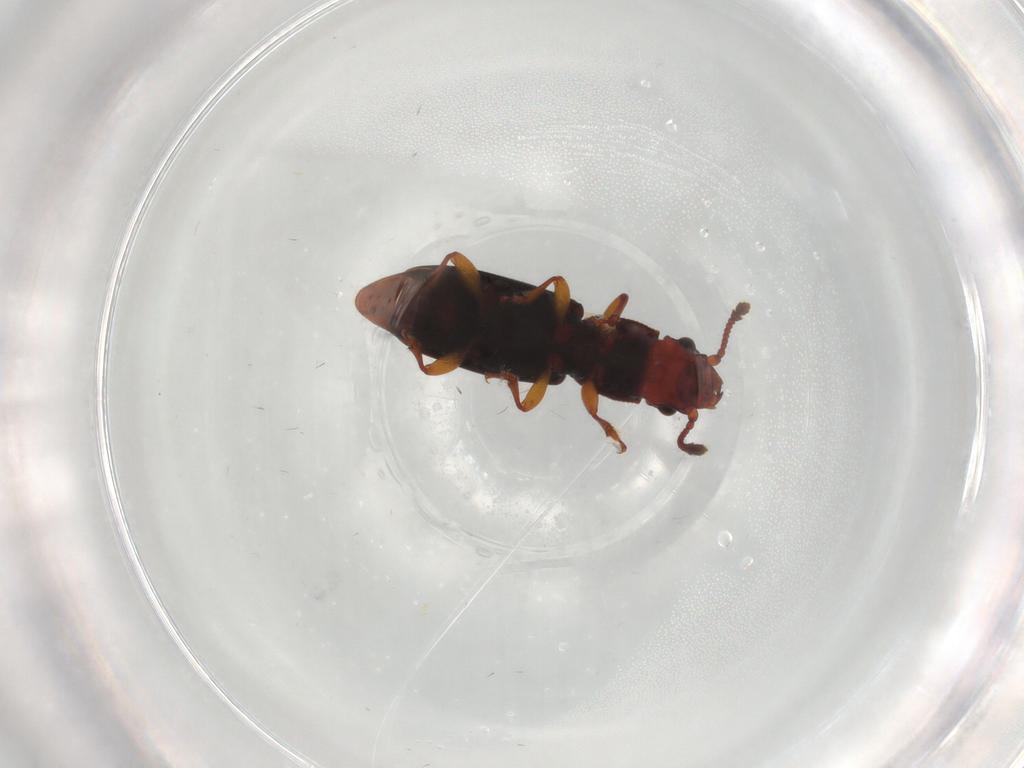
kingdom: Animalia
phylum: Arthropoda
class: Insecta
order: Coleoptera
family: Monotomidae
